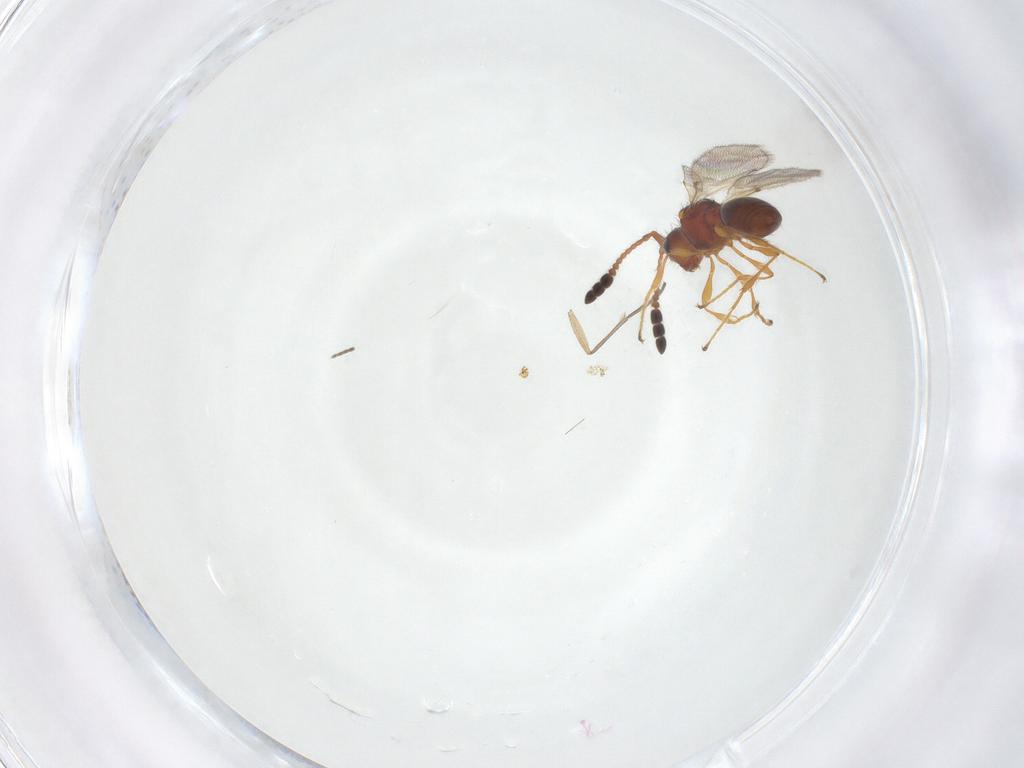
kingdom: Animalia
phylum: Arthropoda
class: Insecta
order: Hymenoptera
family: Diapriidae
